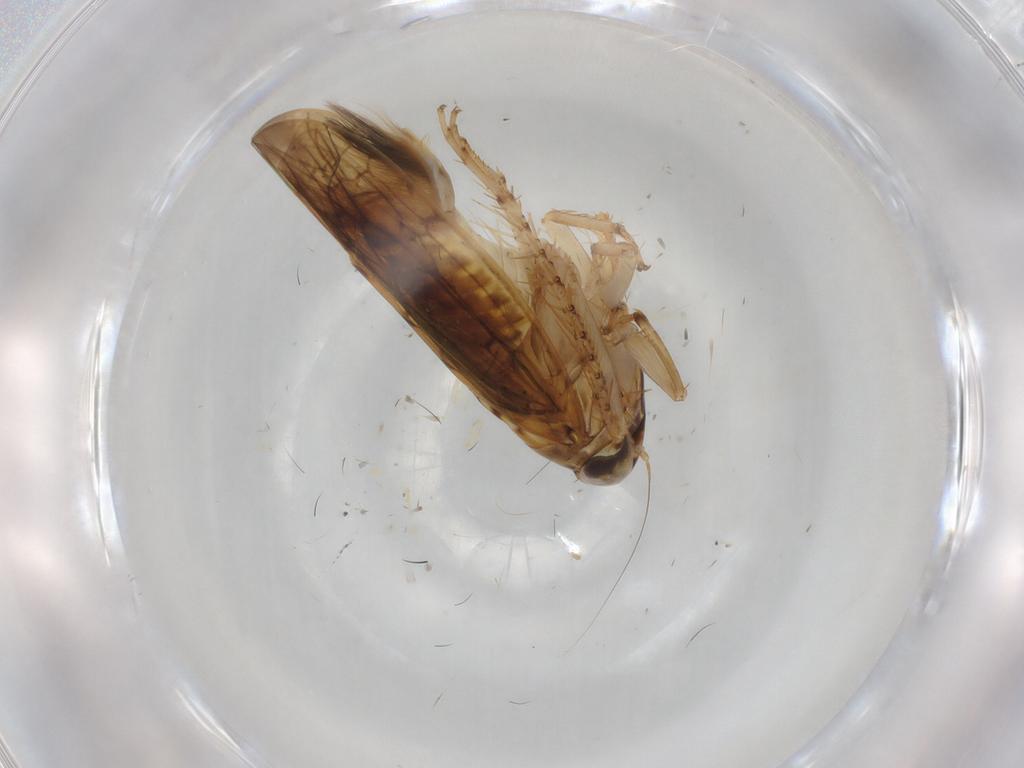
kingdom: Animalia
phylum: Arthropoda
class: Insecta
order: Hemiptera
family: Cicadellidae
